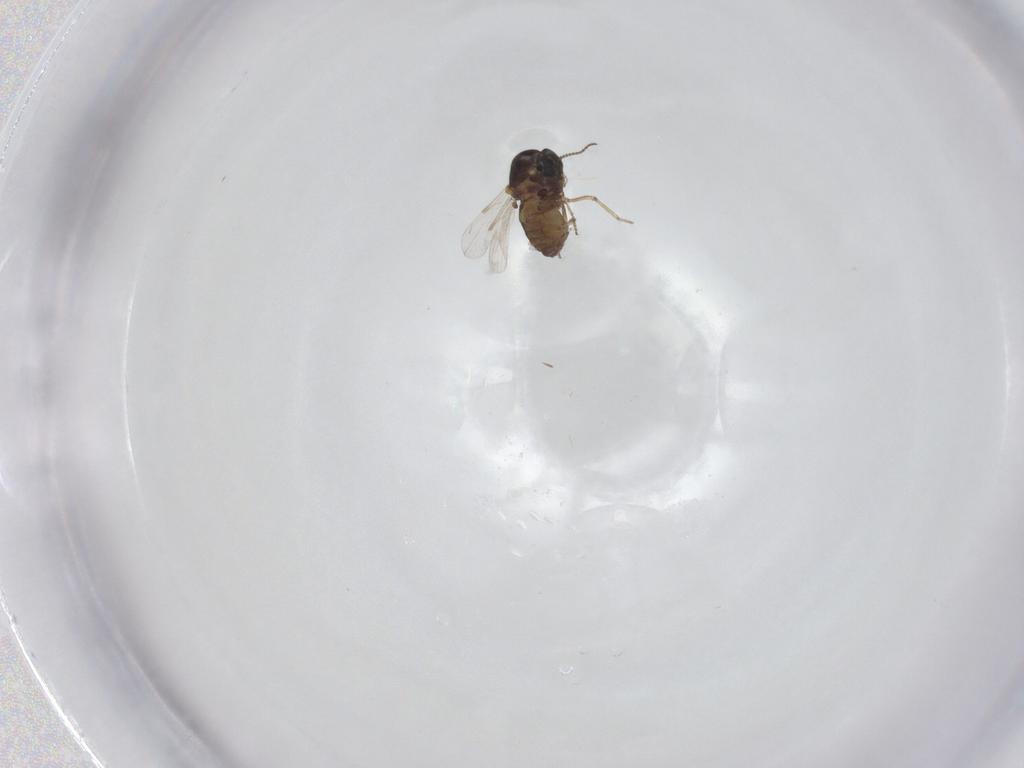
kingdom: Animalia
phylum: Arthropoda
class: Insecta
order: Diptera
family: Ceratopogonidae
